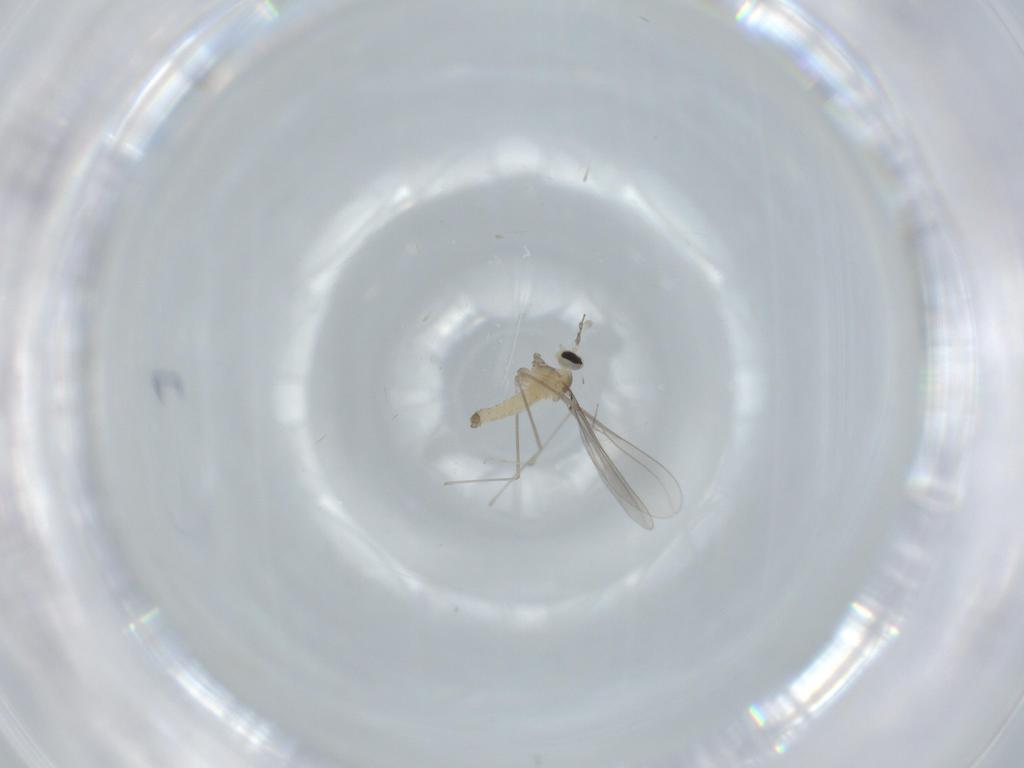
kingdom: Animalia
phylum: Arthropoda
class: Insecta
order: Diptera
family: Cecidomyiidae
